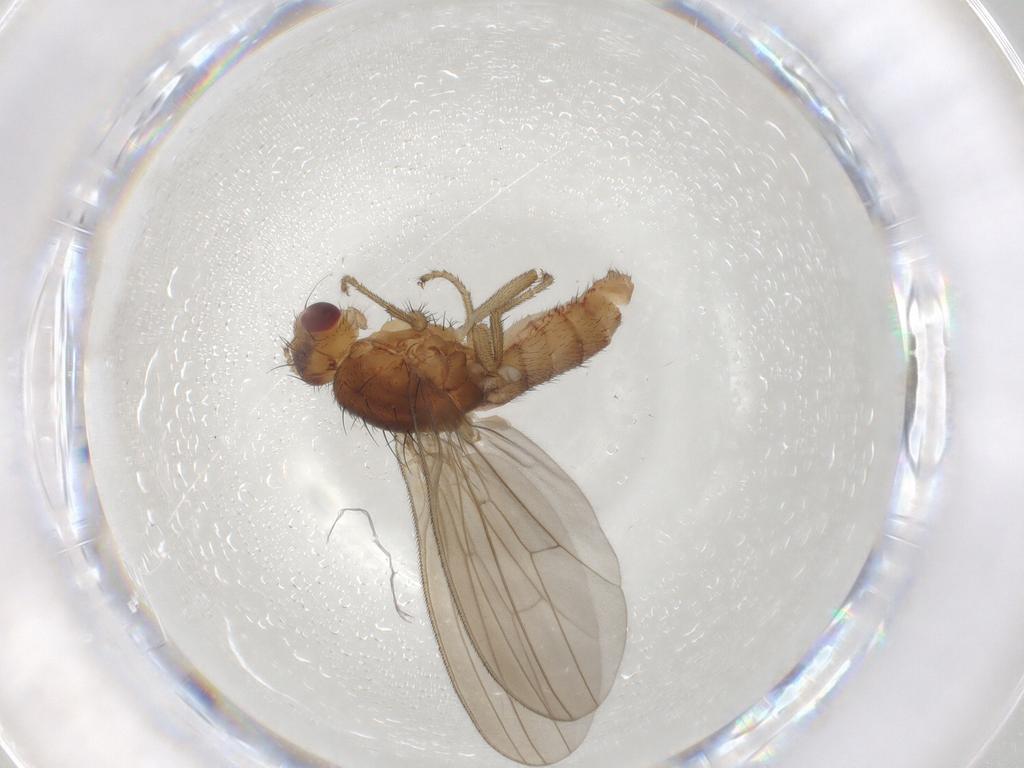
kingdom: Animalia
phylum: Arthropoda
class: Insecta
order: Diptera
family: Natalimyzidae
